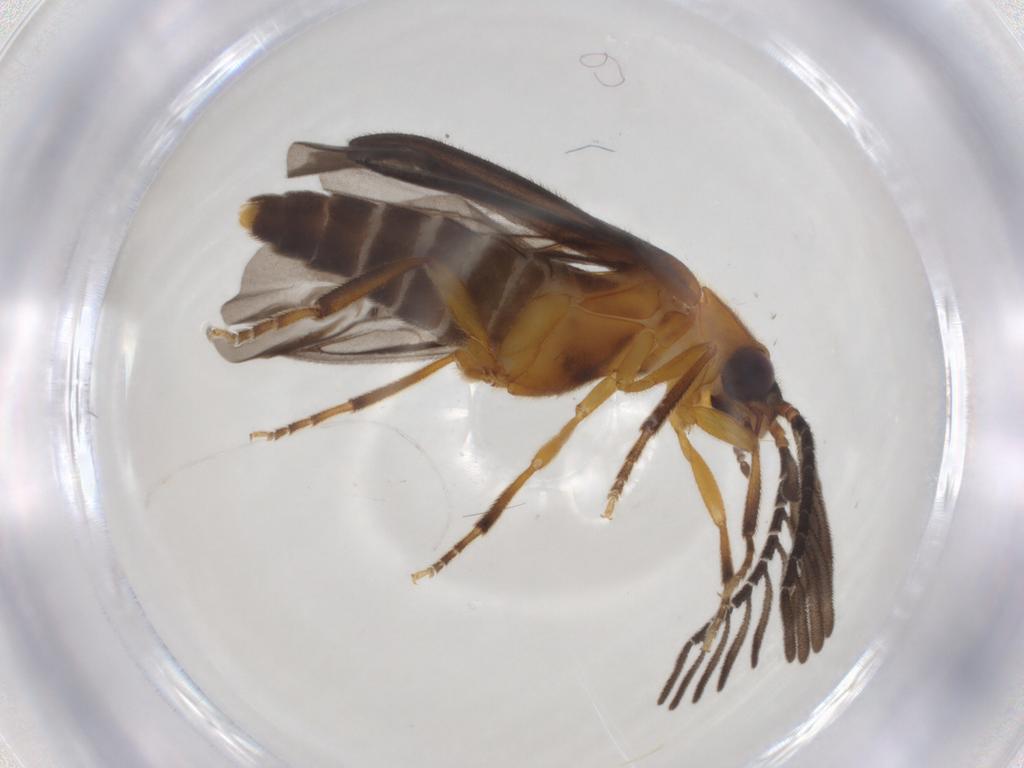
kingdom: Animalia
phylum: Arthropoda
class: Insecta
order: Coleoptera
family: Lampyridae
